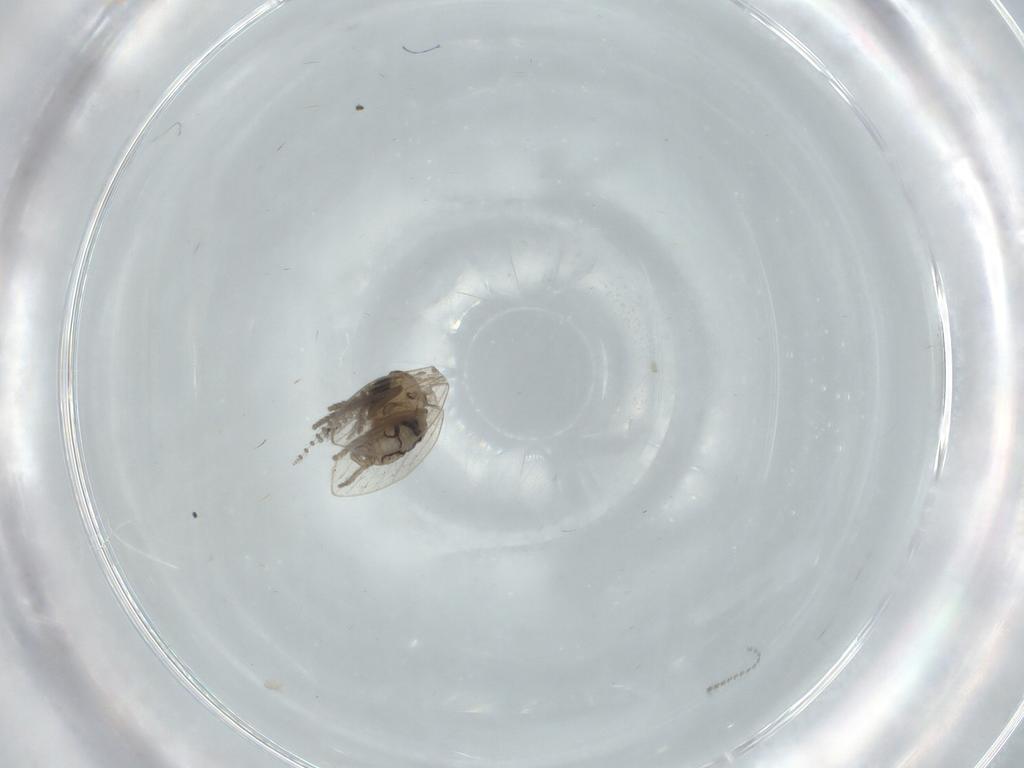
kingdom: Animalia
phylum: Arthropoda
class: Insecta
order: Diptera
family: Psychodidae
